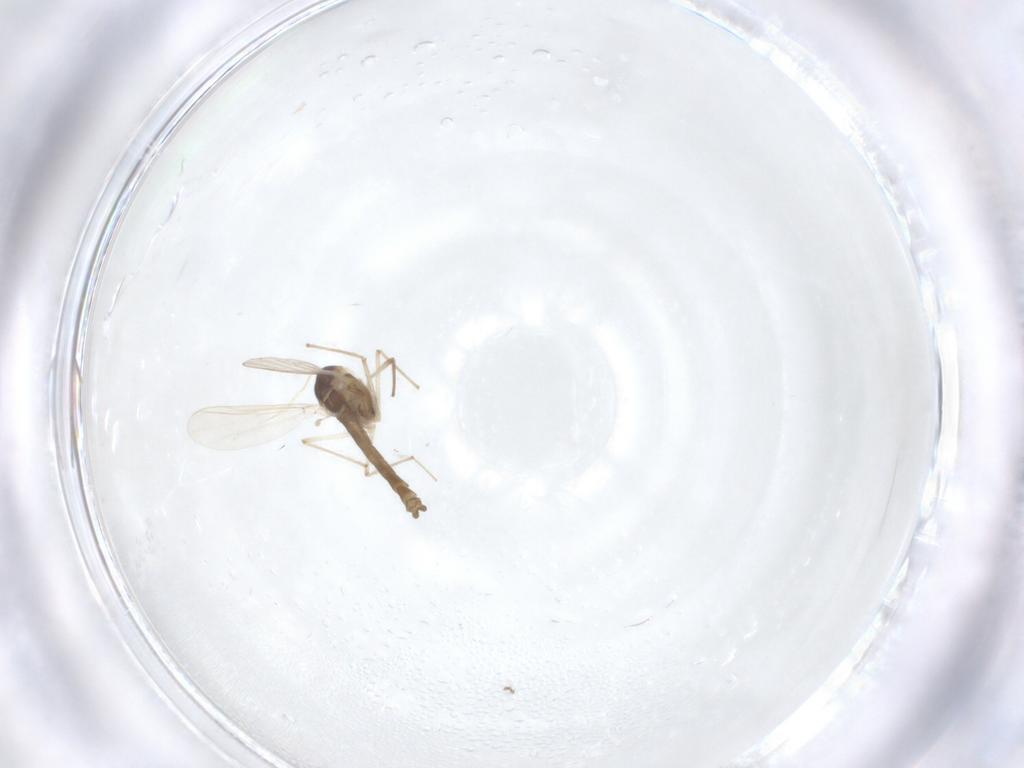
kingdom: Animalia
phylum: Arthropoda
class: Insecta
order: Diptera
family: Psychodidae
